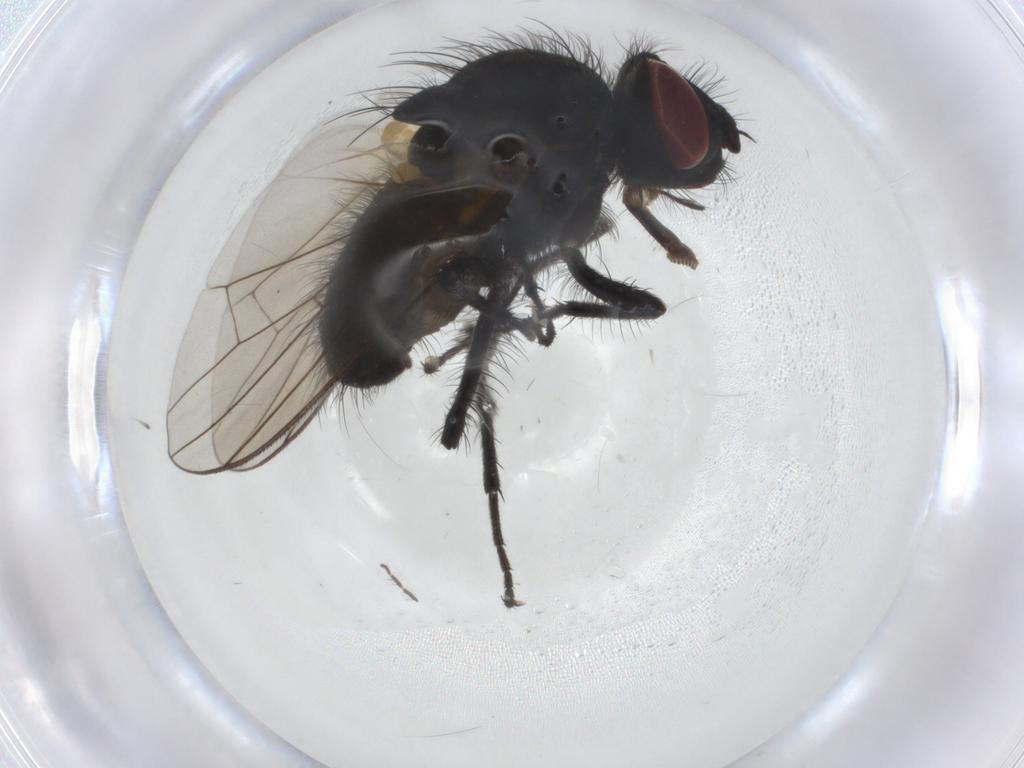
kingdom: Animalia
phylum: Arthropoda
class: Insecta
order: Diptera
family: Anthomyiidae
